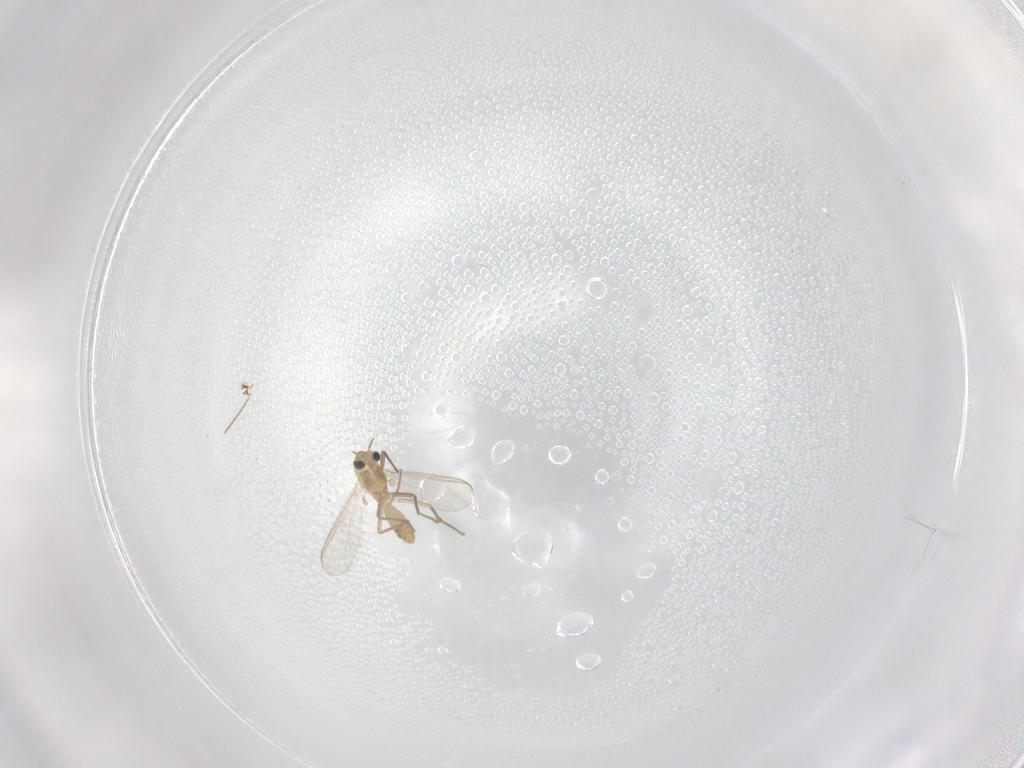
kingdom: Animalia
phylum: Arthropoda
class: Insecta
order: Diptera
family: Chironomidae
